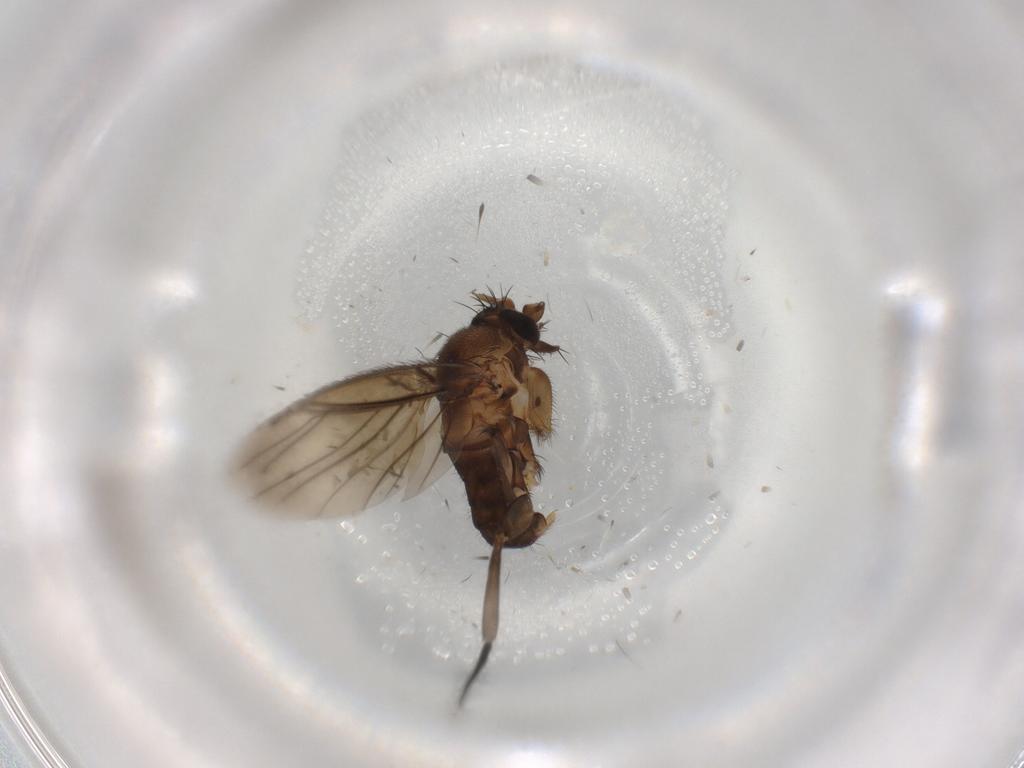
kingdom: Animalia
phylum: Arthropoda
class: Insecta
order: Diptera
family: Phoridae
